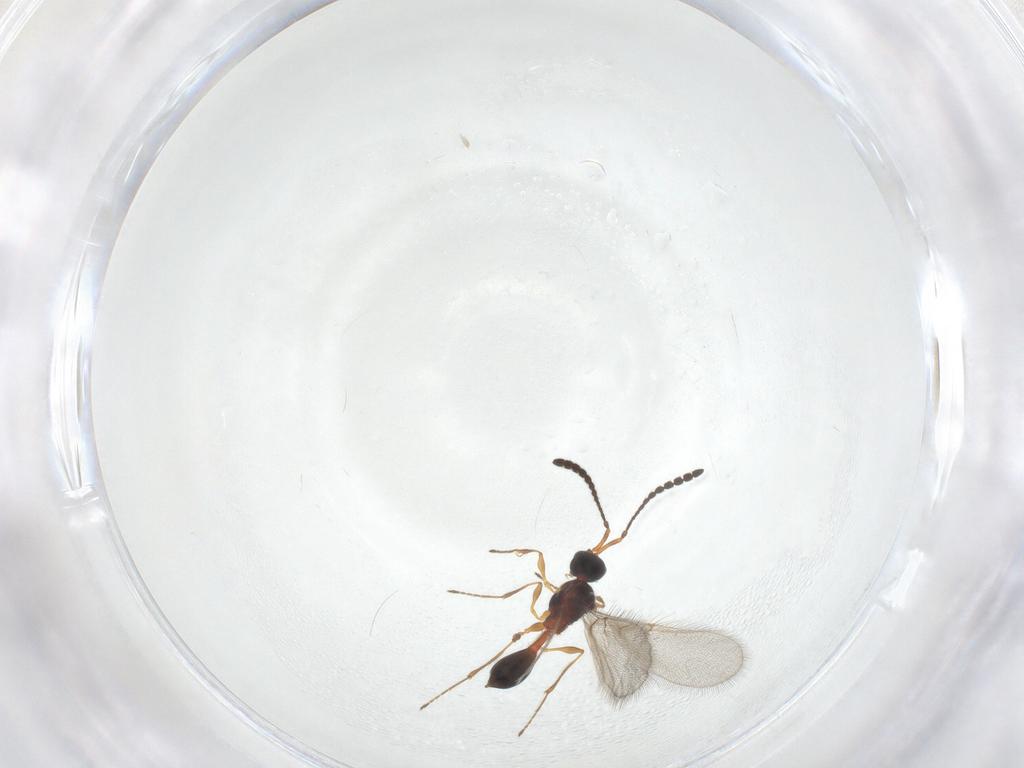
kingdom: Animalia
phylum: Arthropoda
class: Insecta
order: Hymenoptera
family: Diapriidae
